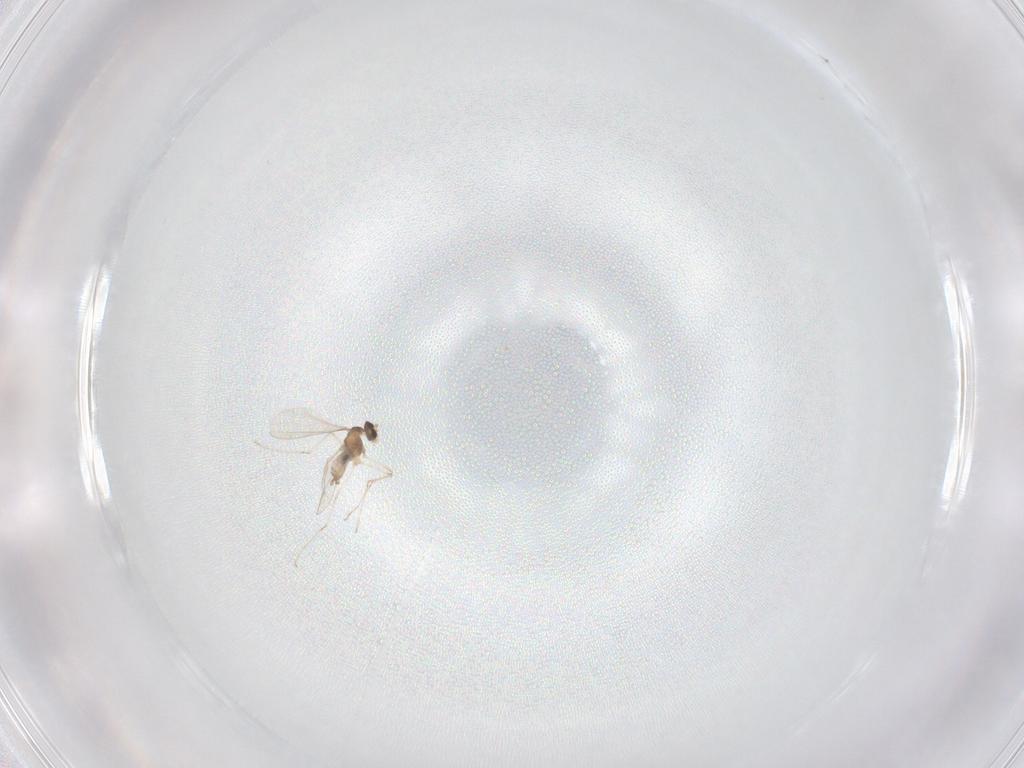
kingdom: Animalia
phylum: Arthropoda
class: Insecta
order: Diptera
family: Cecidomyiidae
